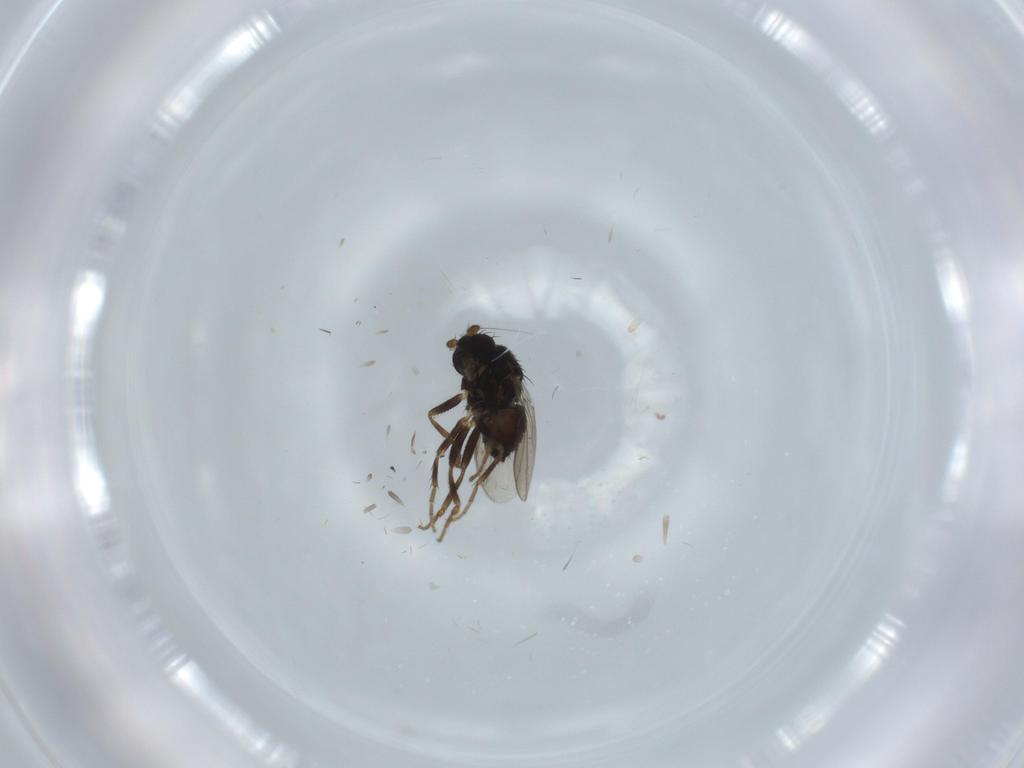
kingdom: Animalia
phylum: Arthropoda
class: Insecta
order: Diptera
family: Sphaeroceridae
